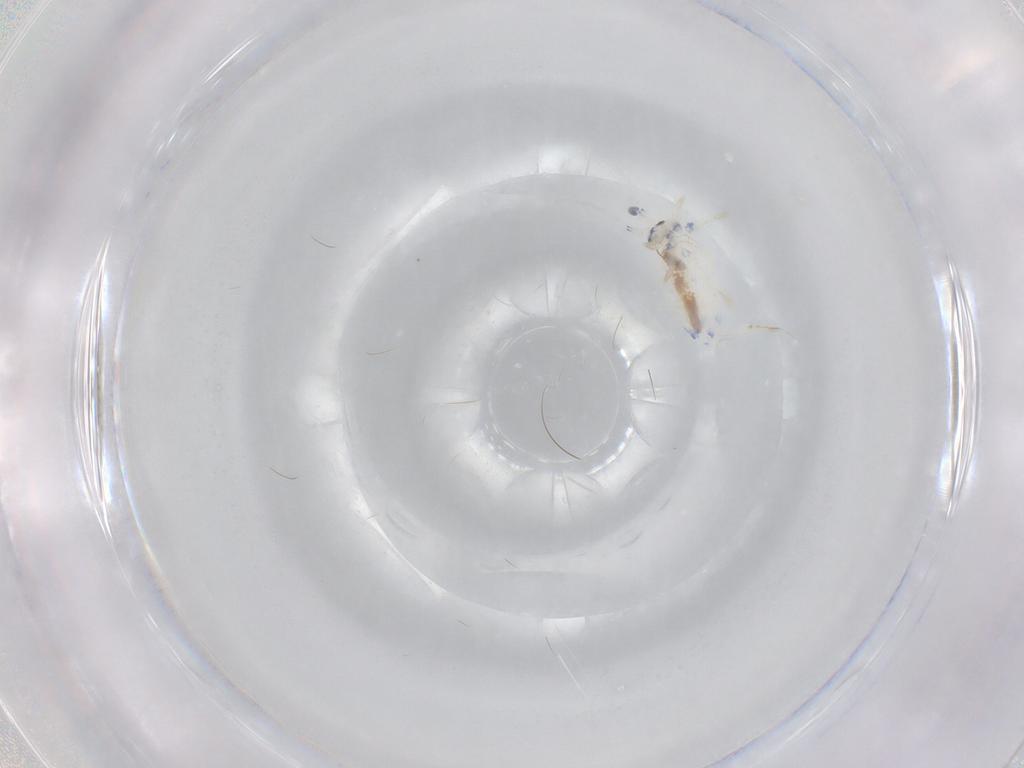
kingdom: Animalia
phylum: Arthropoda
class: Collembola
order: Entomobryomorpha
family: Entomobryidae
